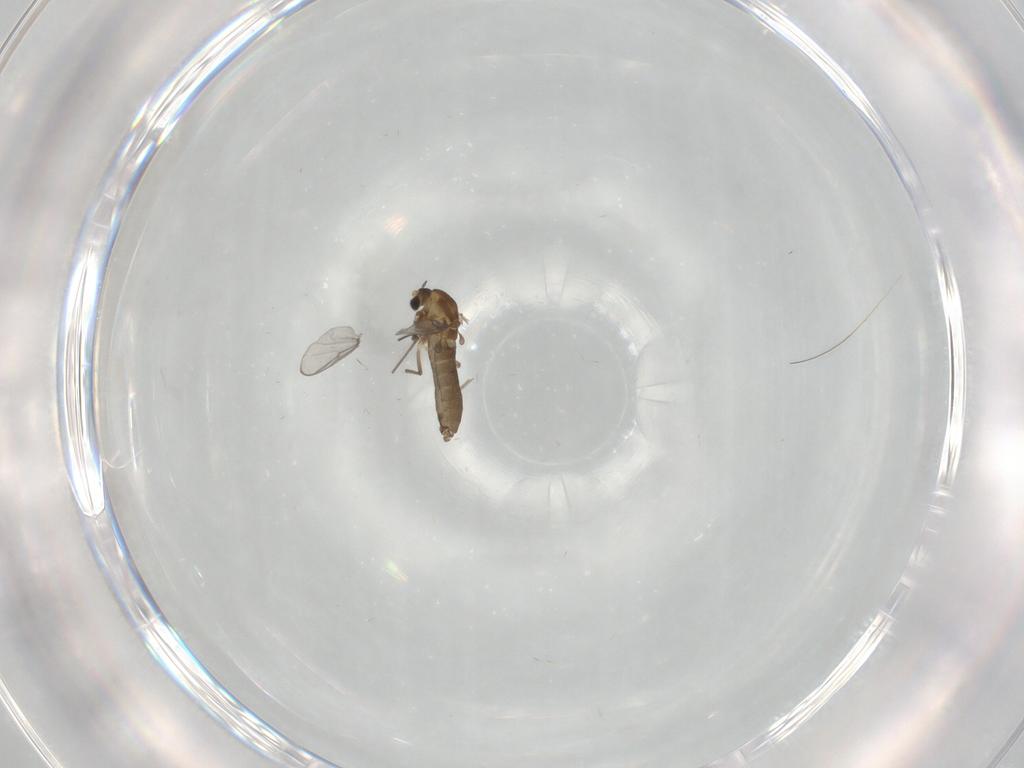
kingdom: Animalia
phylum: Arthropoda
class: Insecta
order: Diptera
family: Chironomidae
